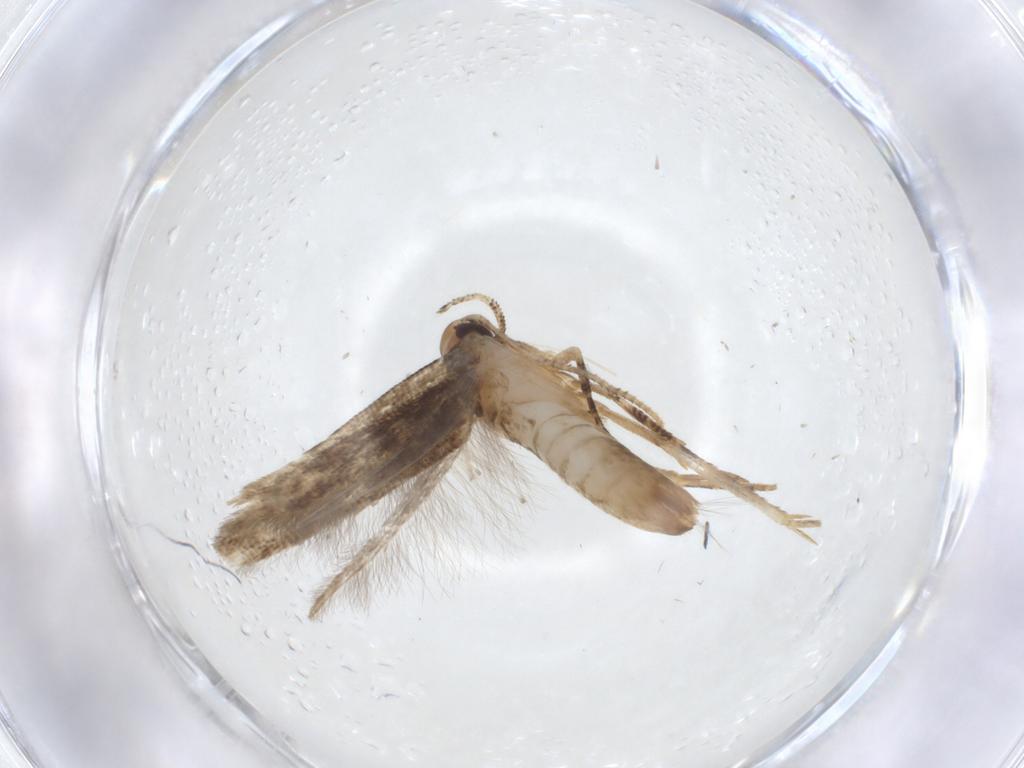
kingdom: Animalia
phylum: Arthropoda
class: Insecta
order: Lepidoptera
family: Cosmopterigidae
